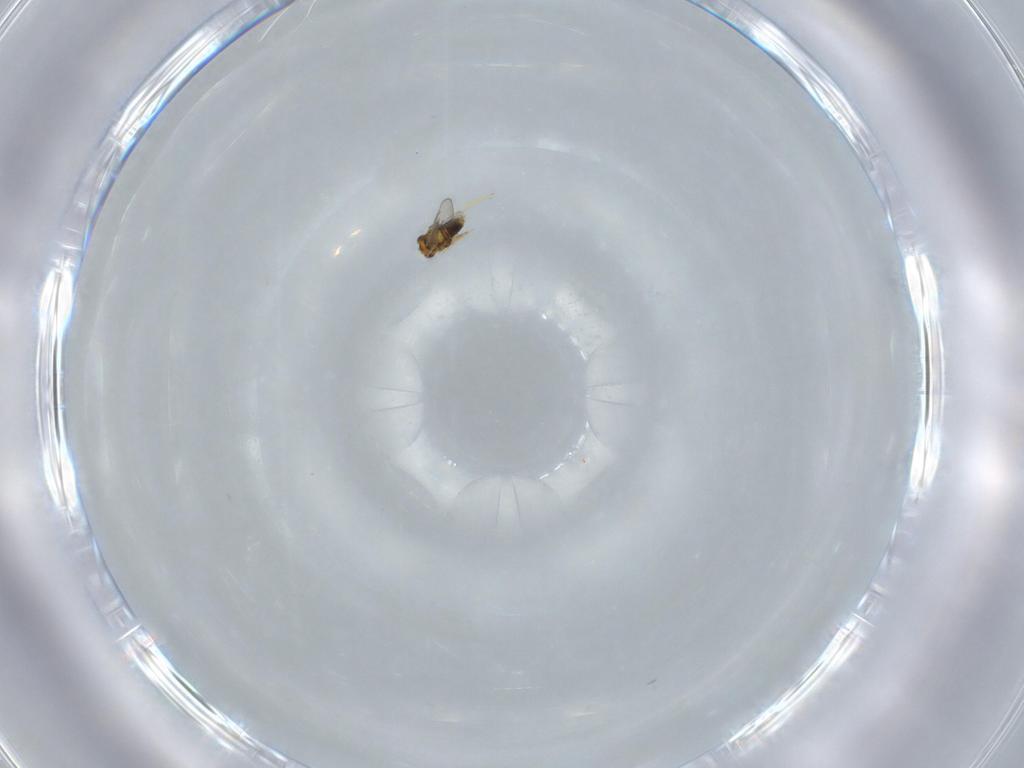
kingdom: Animalia
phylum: Arthropoda
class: Insecta
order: Hymenoptera
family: Aphelinidae
